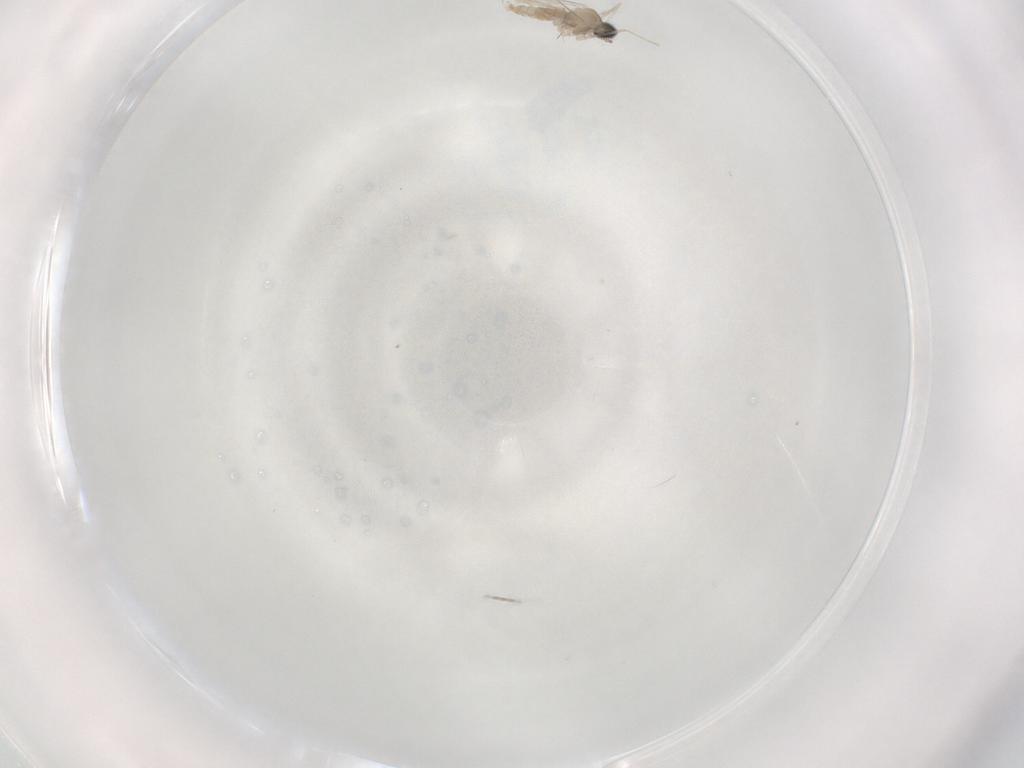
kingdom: Animalia
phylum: Arthropoda
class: Insecta
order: Diptera
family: Cecidomyiidae
